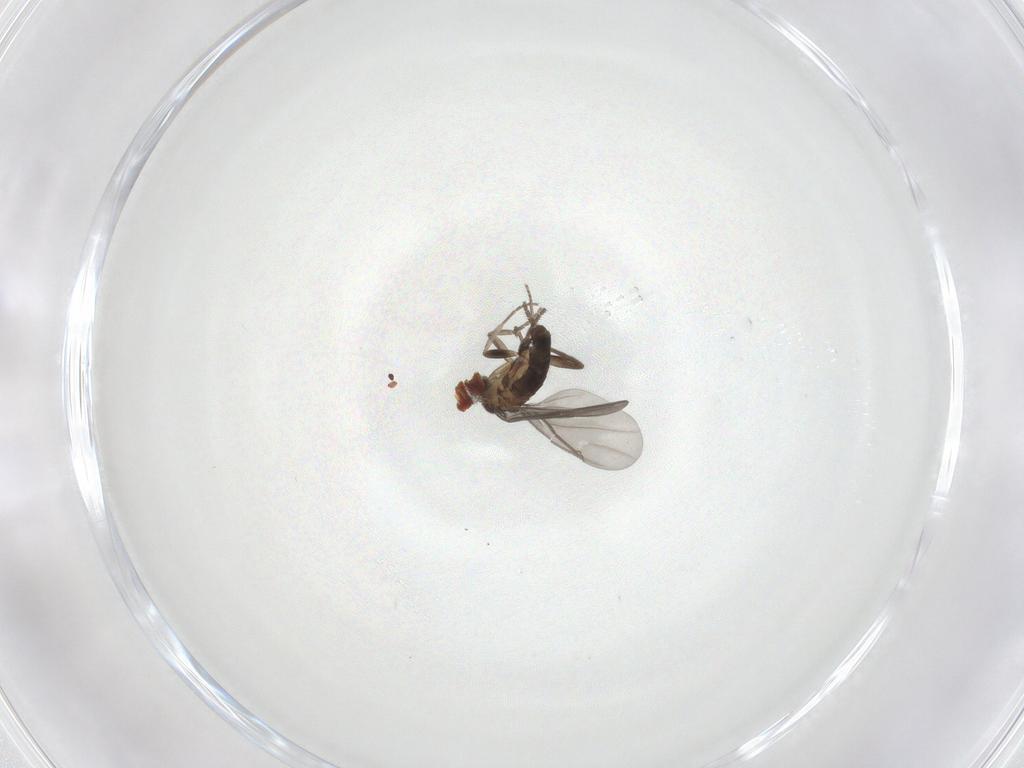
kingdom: Animalia
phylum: Arthropoda
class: Insecta
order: Diptera
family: Phoridae
